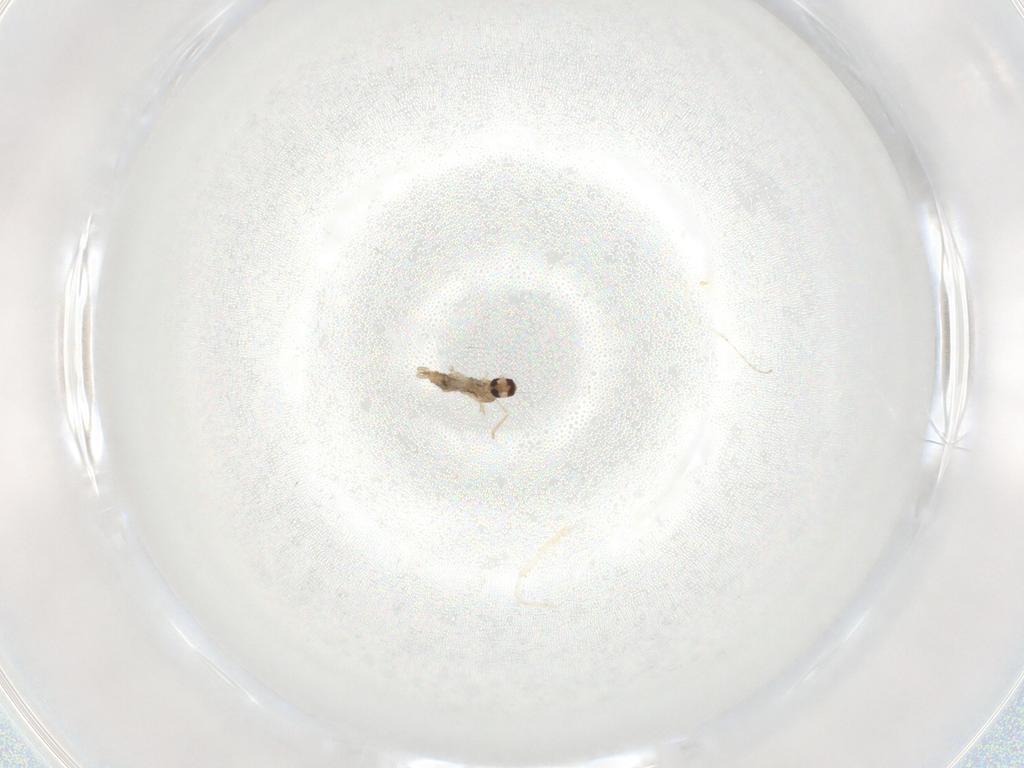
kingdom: Animalia
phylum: Arthropoda
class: Insecta
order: Diptera
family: Cecidomyiidae
